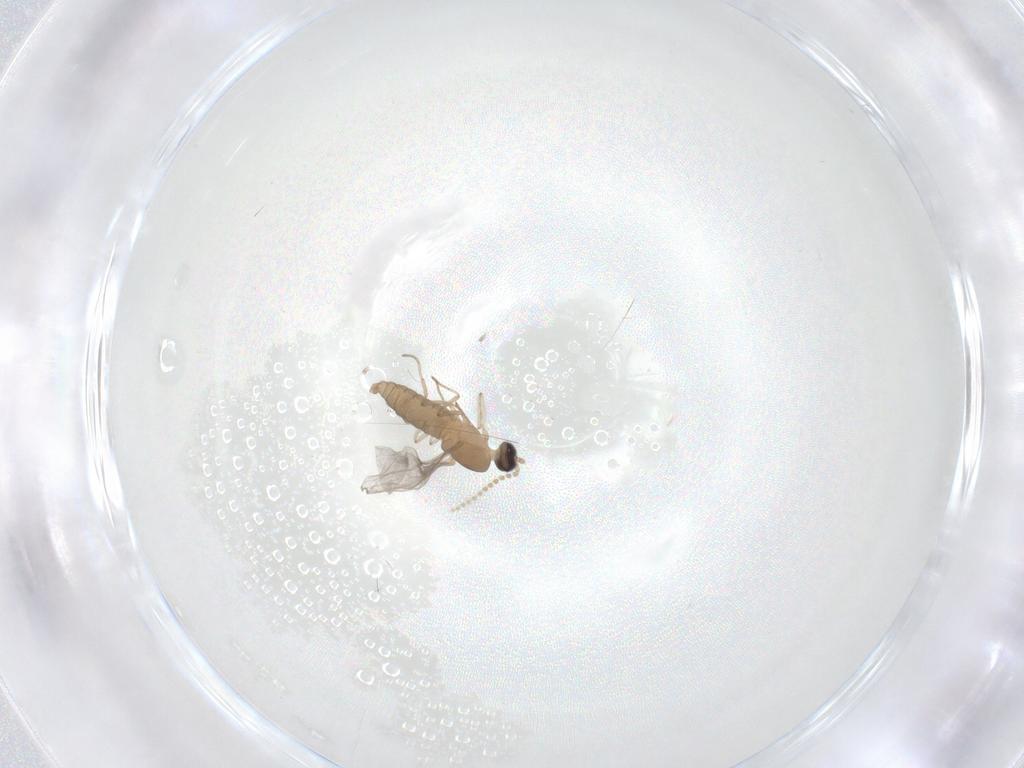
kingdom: Animalia
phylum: Arthropoda
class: Insecta
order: Diptera
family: Cecidomyiidae
